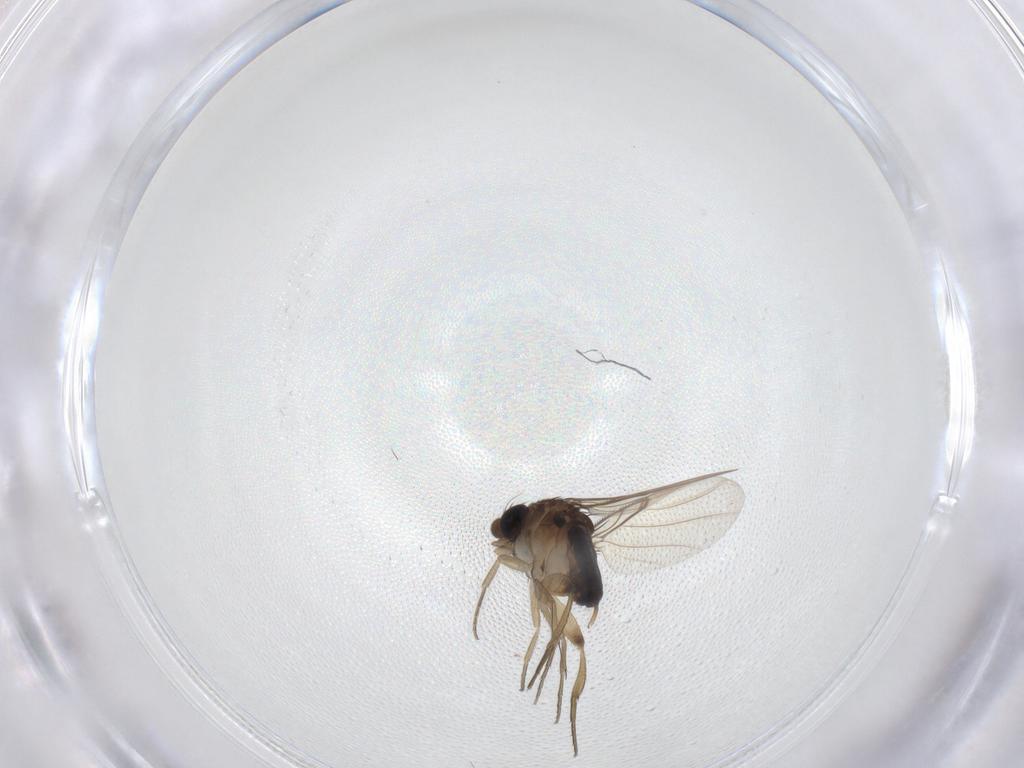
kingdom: Animalia
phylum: Arthropoda
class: Insecta
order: Diptera
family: Phoridae
